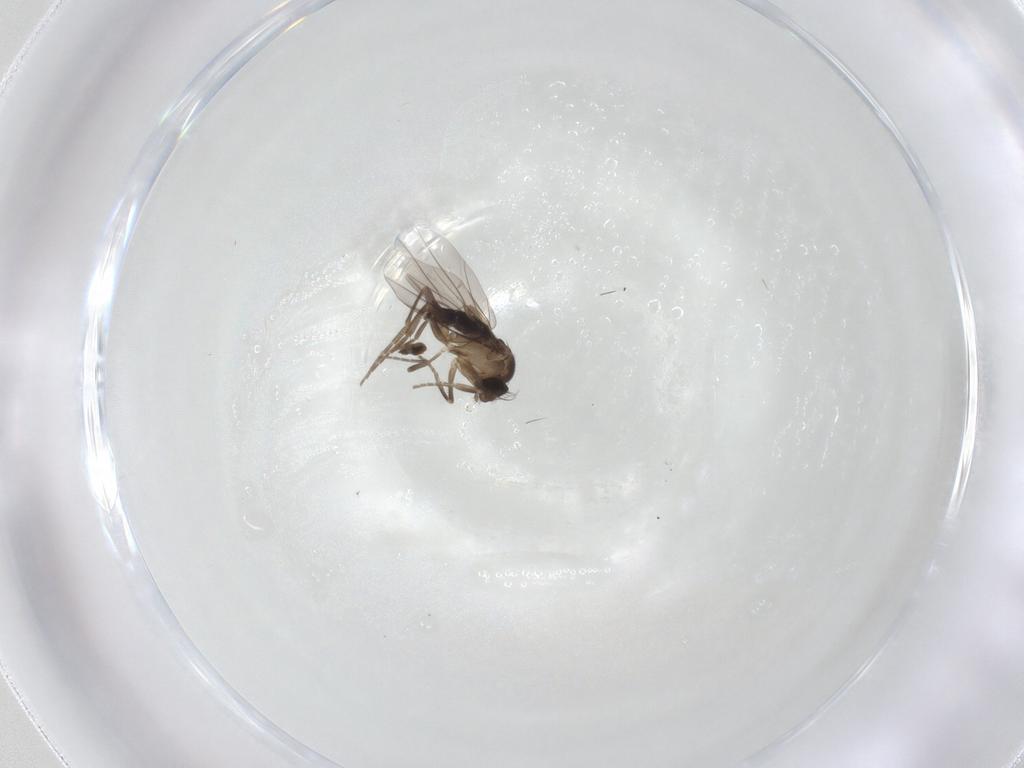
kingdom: Animalia
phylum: Arthropoda
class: Insecta
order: Diptera
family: Phoridae
